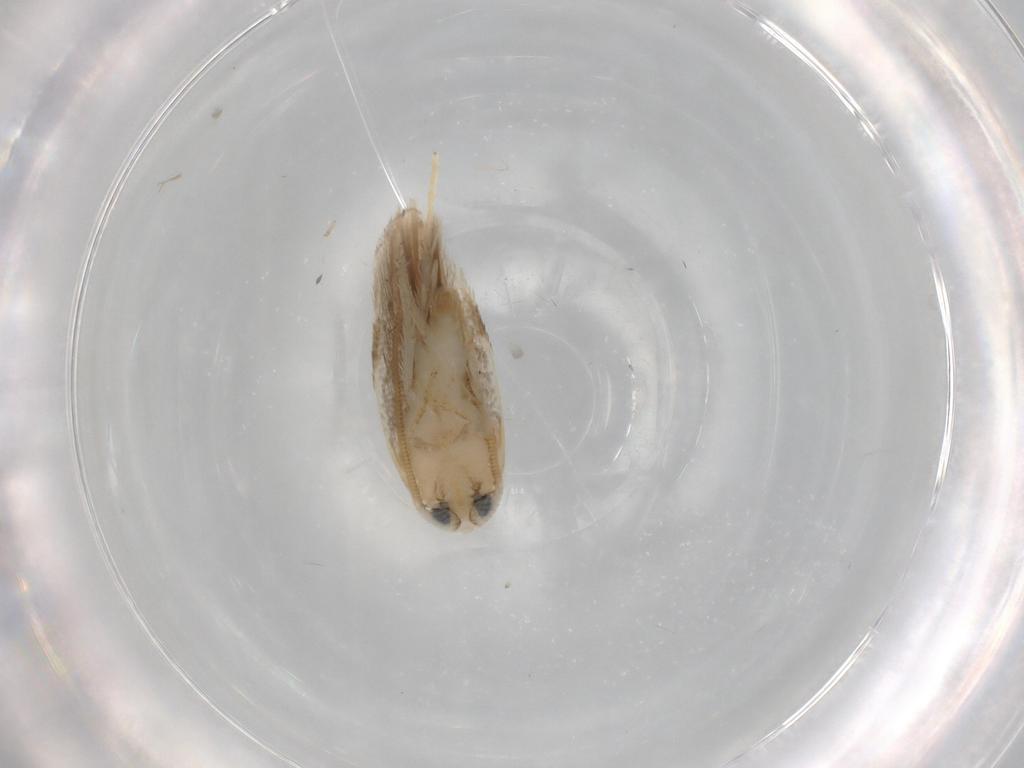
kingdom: Animalia
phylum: Arthropoda
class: Insecta
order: Lepidoptera
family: Opostegidae
